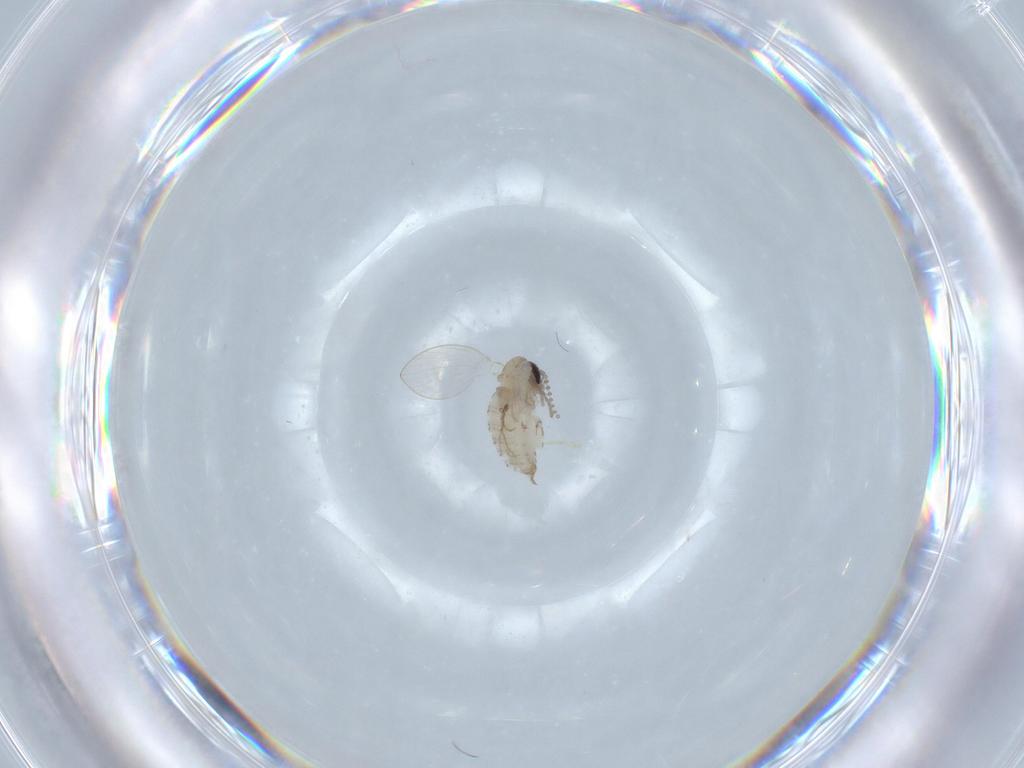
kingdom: Animalia
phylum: Arthropoda
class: Insecta
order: Diptera
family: Psychodidae
